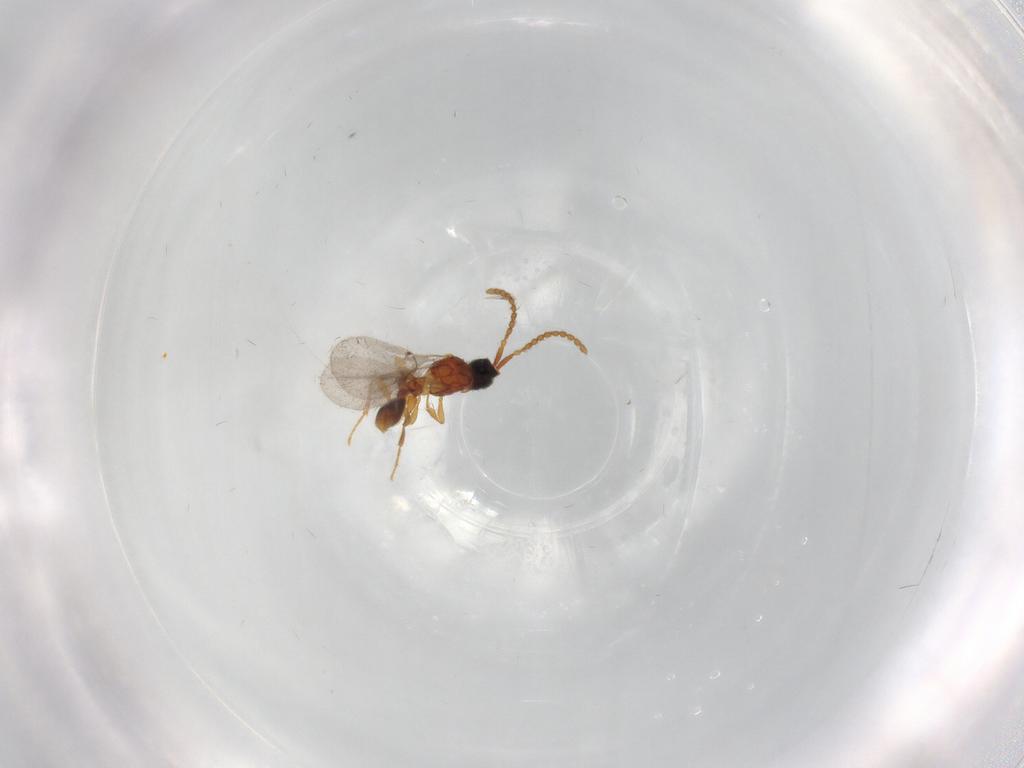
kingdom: Animalia
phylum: Arthropoda
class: Insecta
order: Hymenoptera
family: Diapriidae
